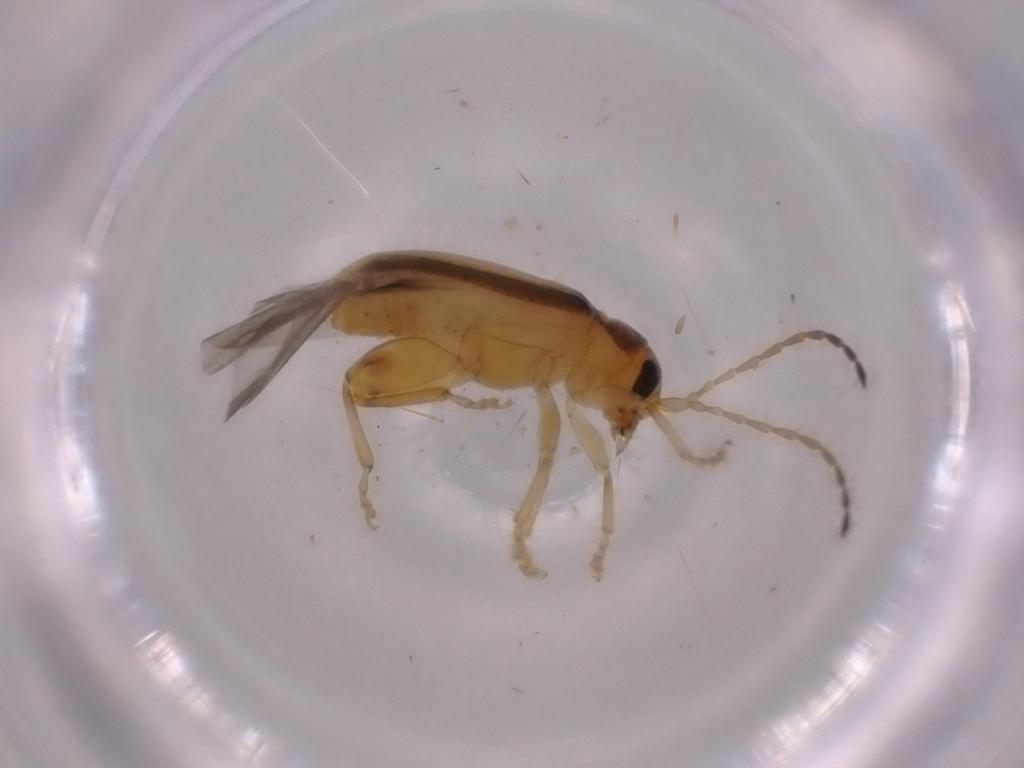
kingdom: Animalia
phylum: Arthropoda
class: Insecta
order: Coleoptera
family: Chrysomelidae
